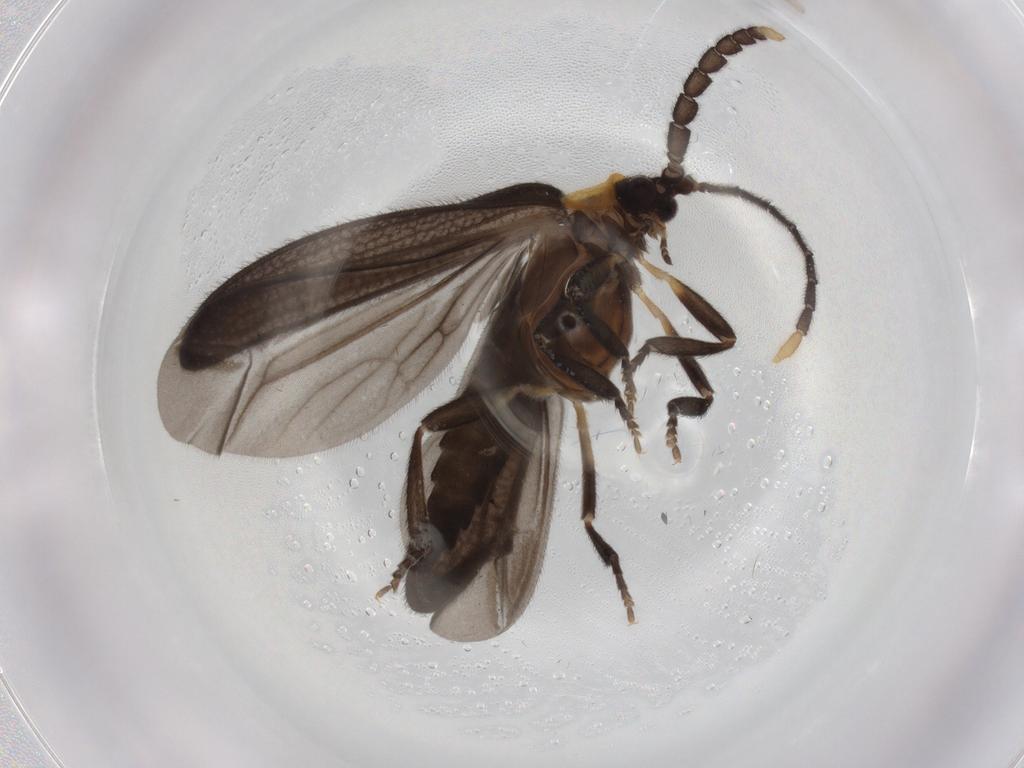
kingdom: Animalia
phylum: Arthropoda
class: Insecta
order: Coleoptera
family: Lycidae
